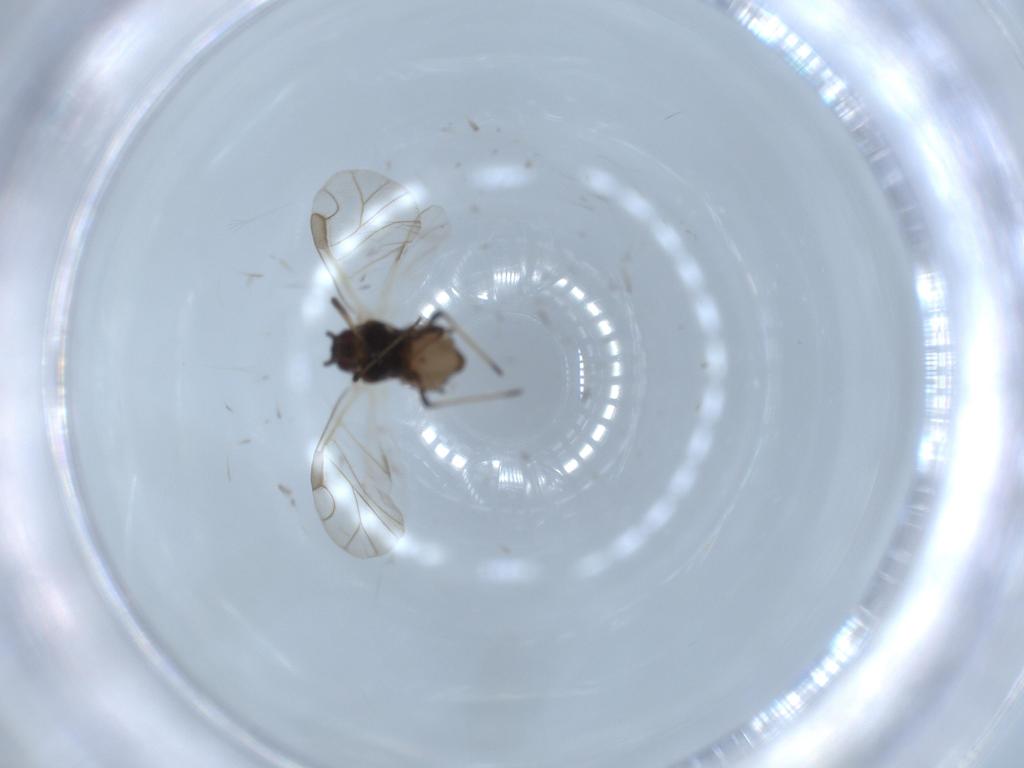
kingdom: Animalia
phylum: Arthropoda
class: Insecta
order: Hemiptera
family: Aphididae
